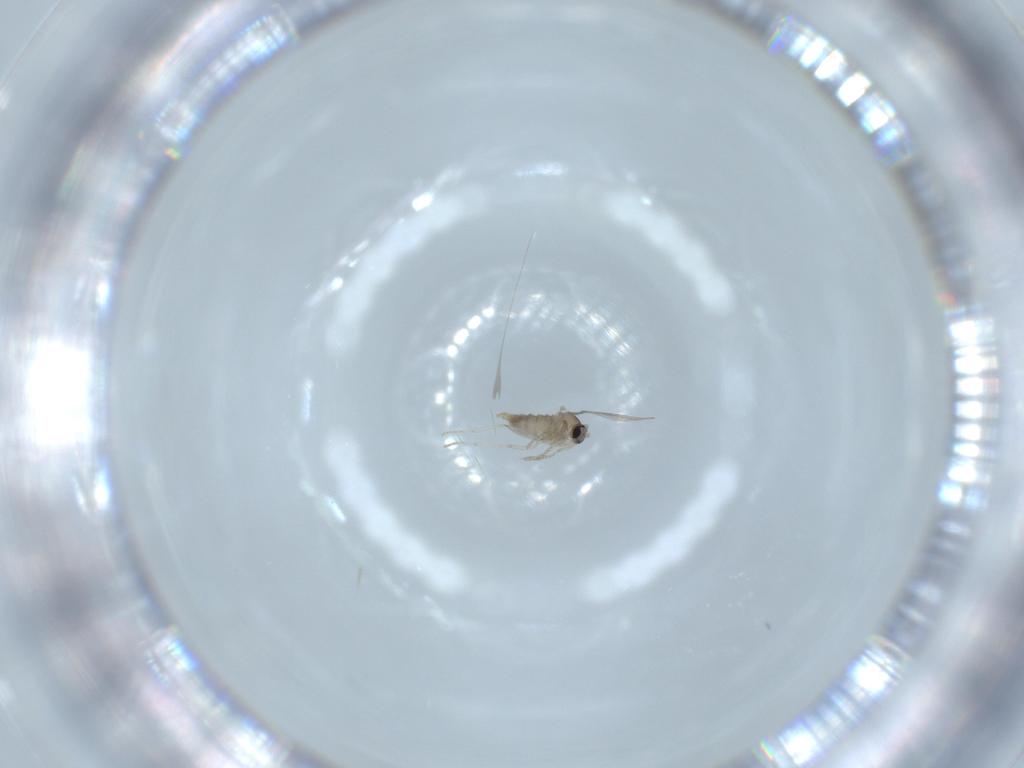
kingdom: Animalia
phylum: Arthropoda
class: Insecta
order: Diptera
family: Cecidomyiidae
